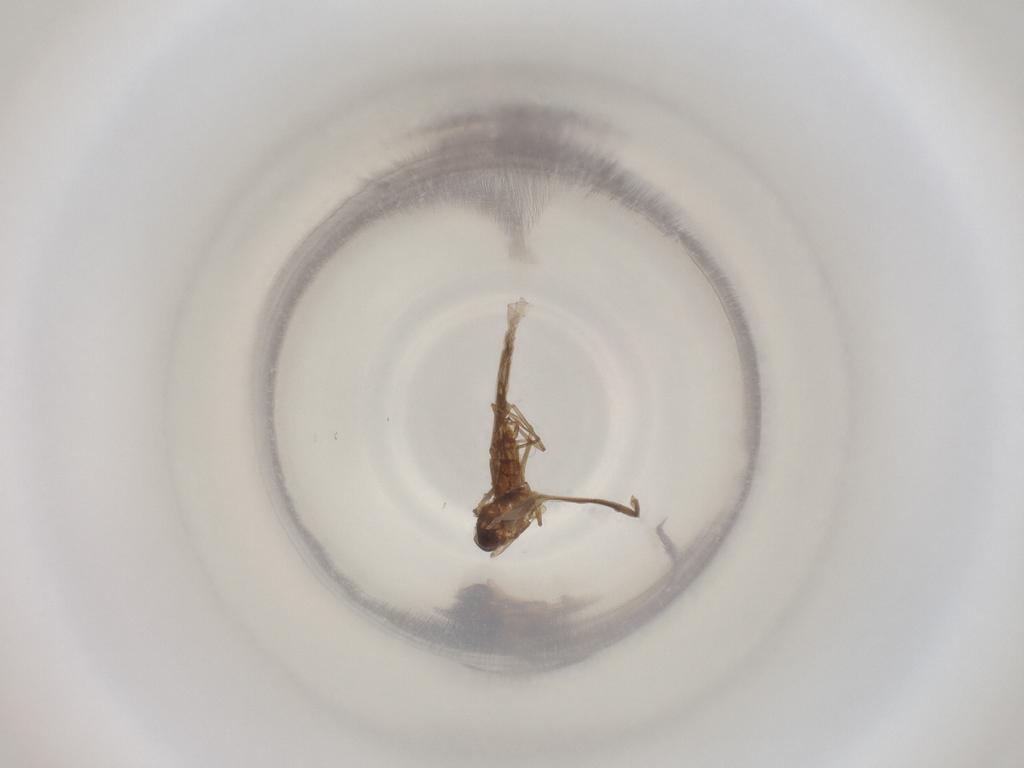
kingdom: Animalia
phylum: Arthropoda
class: Insecta
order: Diptera
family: Cecidomyiidae
